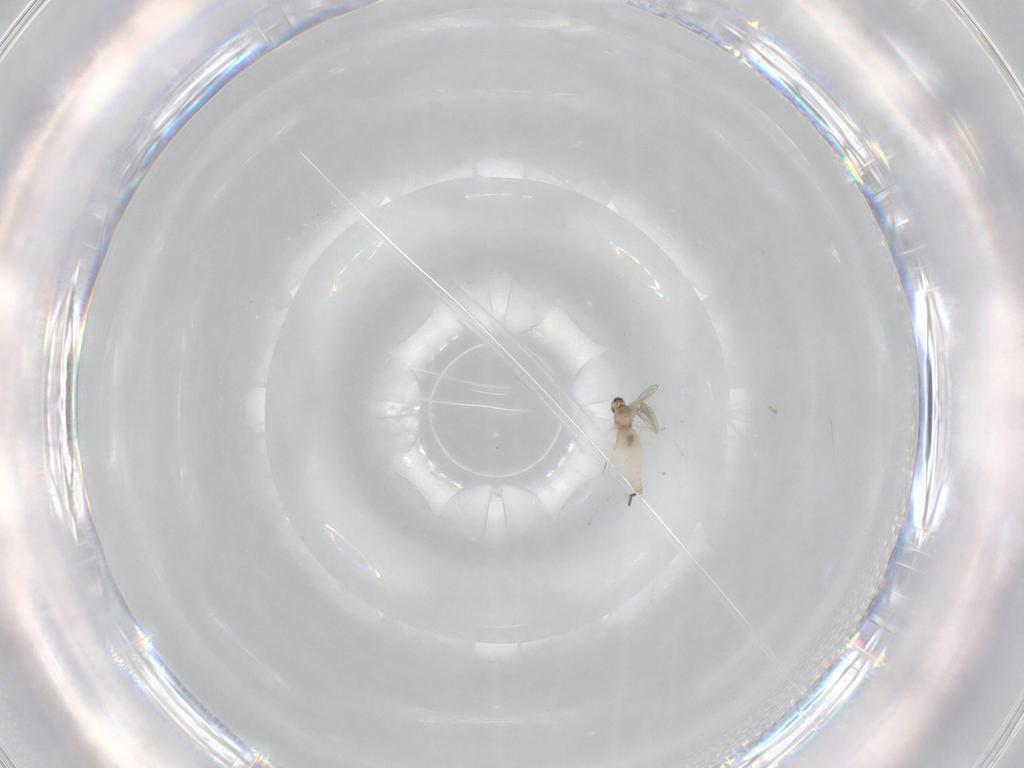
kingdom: Animalia
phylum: Arthropoda
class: Insecta
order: Diptera
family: Cecidomyiidae
